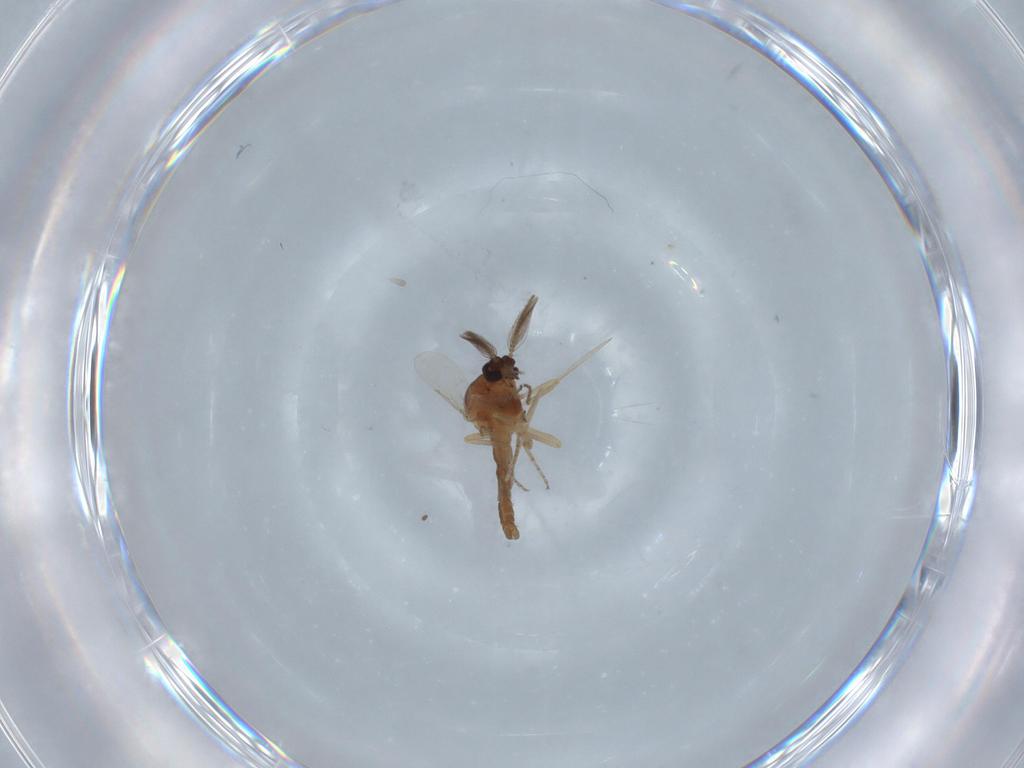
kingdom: Animalia
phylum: Arthropoda
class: Insecta
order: Diptera
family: Ceratopogonidae
